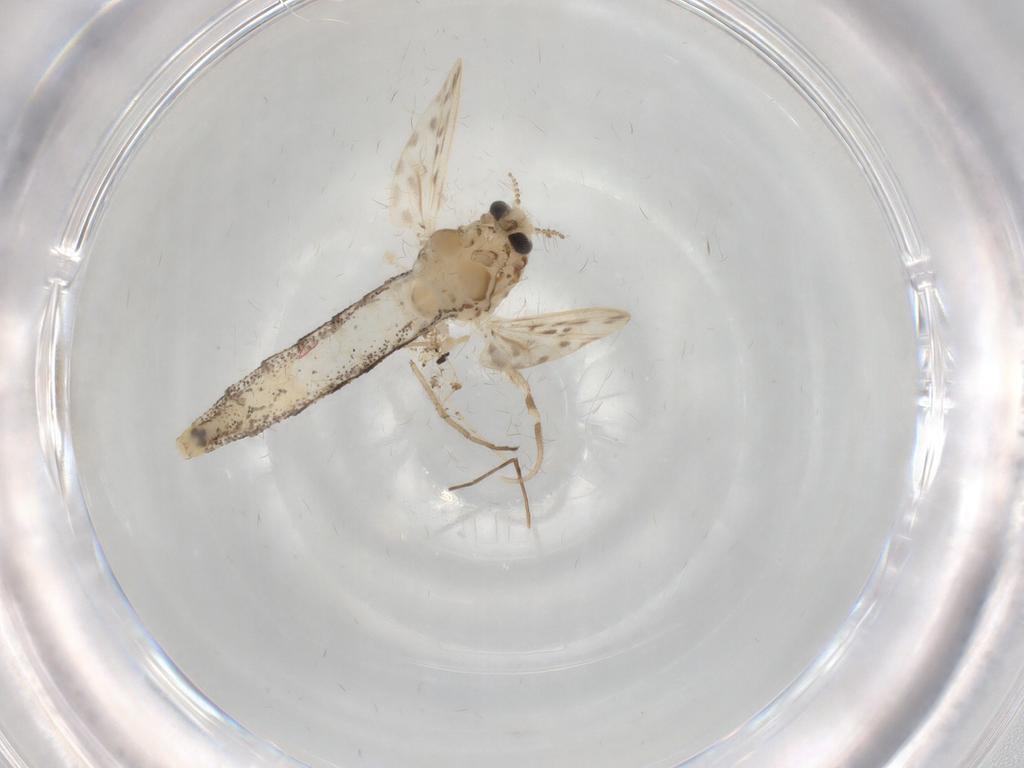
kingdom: Animalia
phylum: Arthropoda
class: Insecta
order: Diptera
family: Chaoboridae
